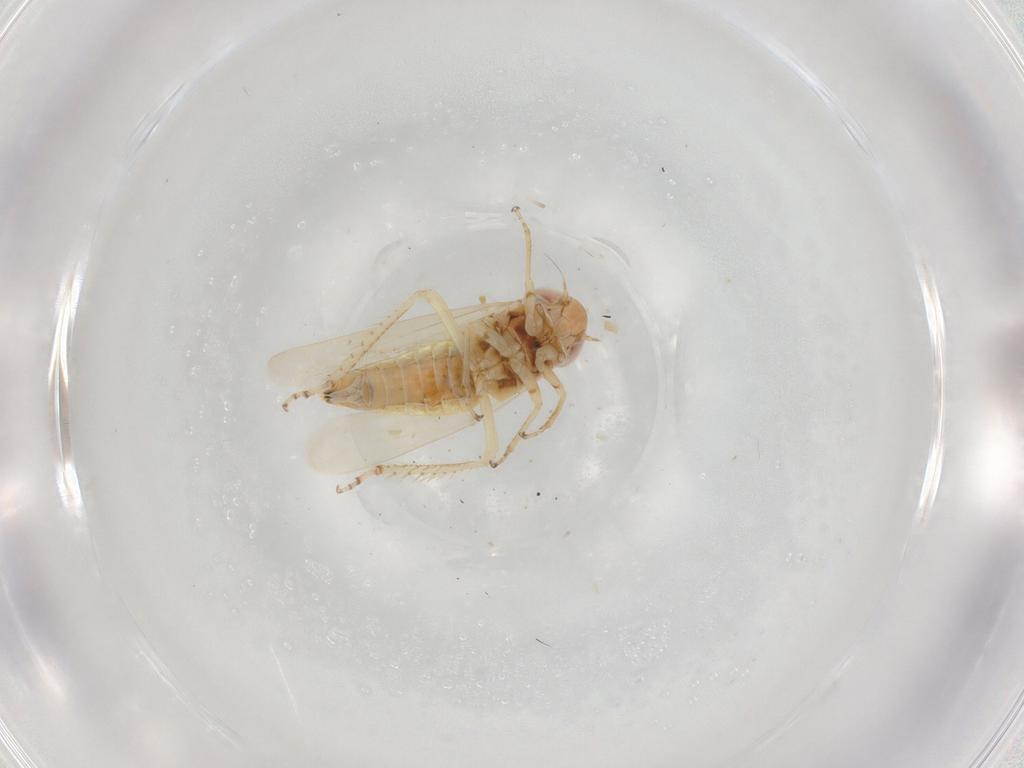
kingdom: Animalia
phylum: Arthropoda
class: Insecta
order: Hemiptera
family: Cicadellidae
